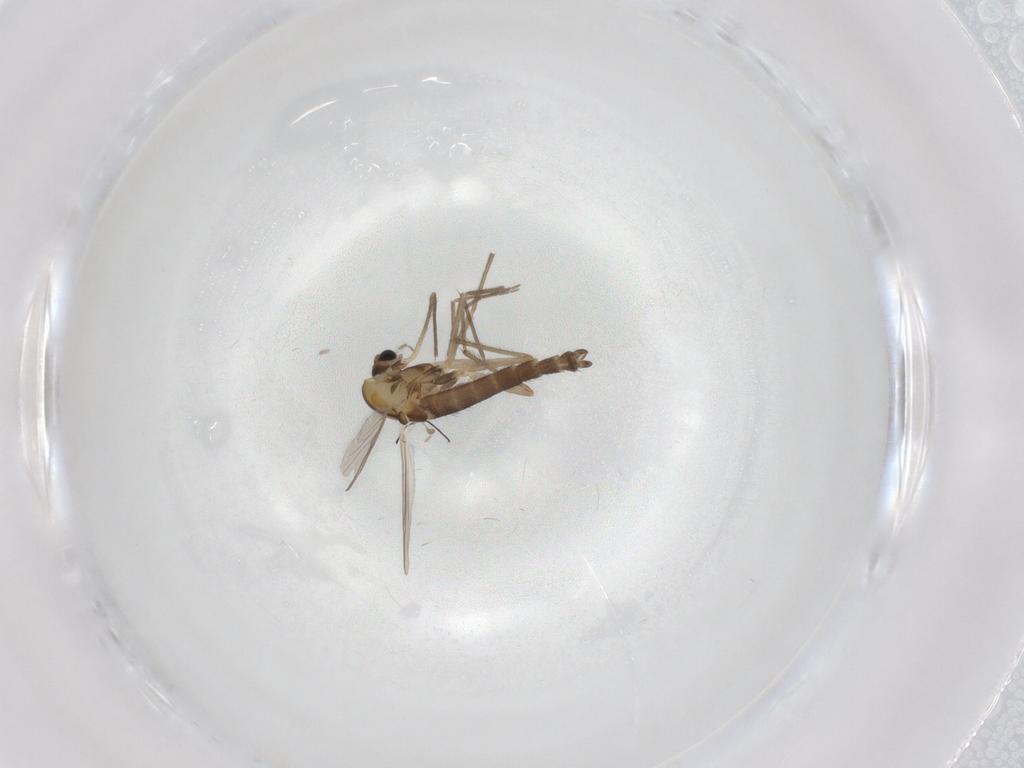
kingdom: Animalia
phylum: Arthropoda
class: Insecta
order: Diptera
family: Chironomidae
